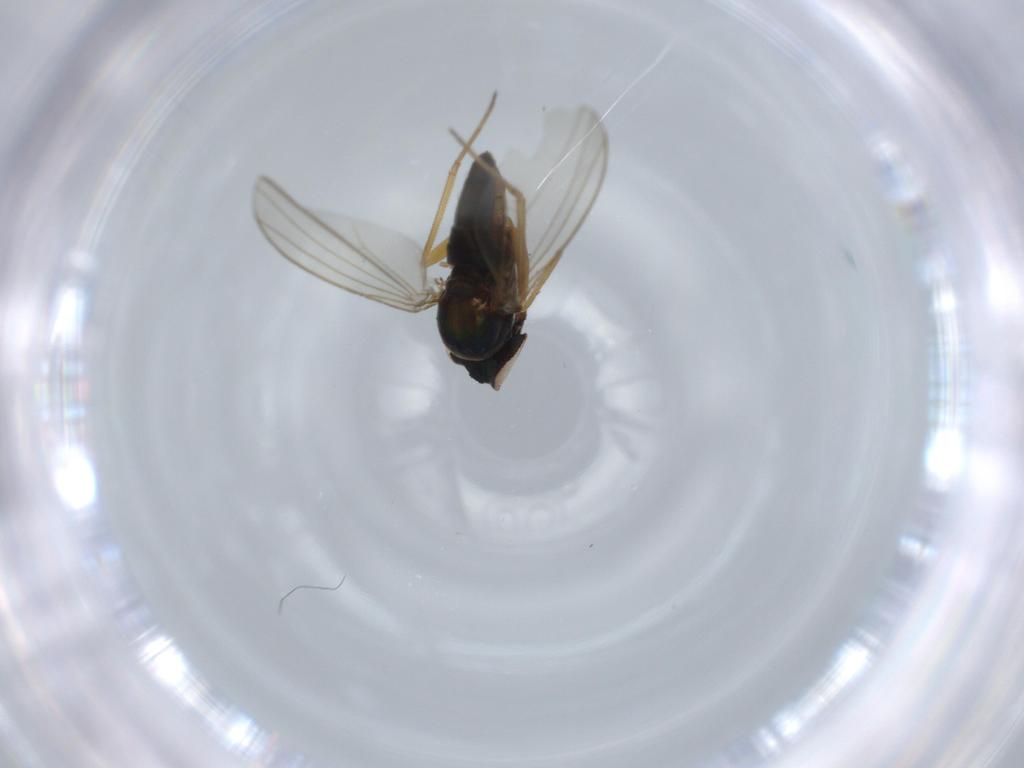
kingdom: Animalia
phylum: Arthropoda
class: Insecta
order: Diptera
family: Dolichopodidae
